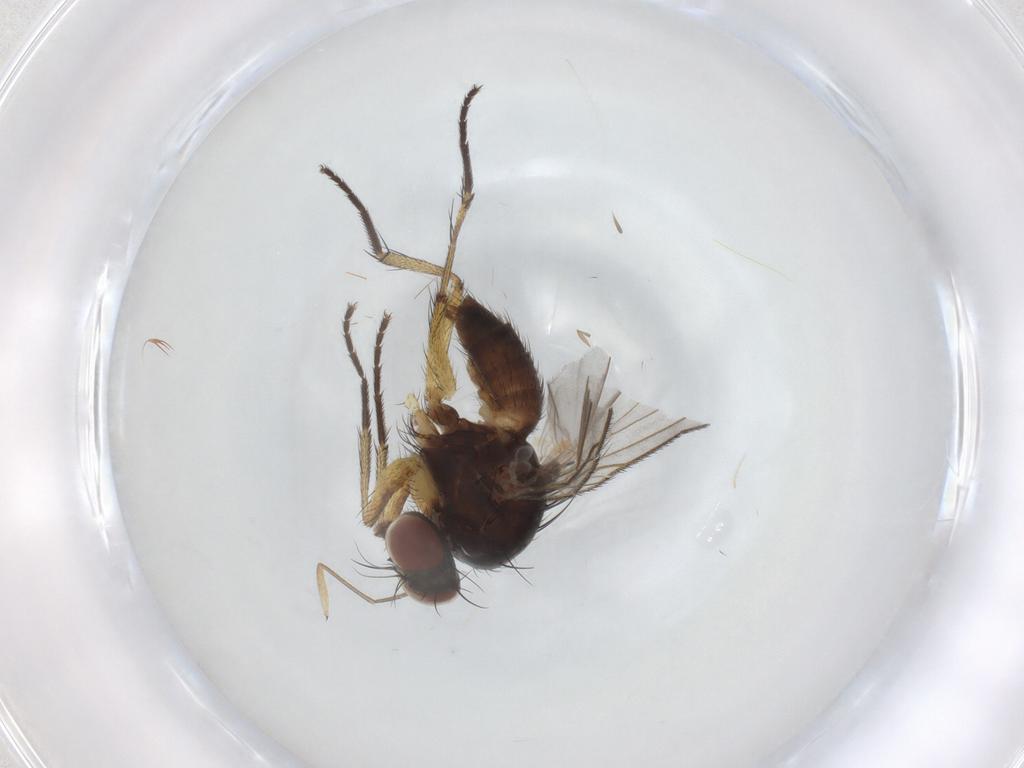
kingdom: Animalia
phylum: Arthropoda
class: Insecta
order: Diptera
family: Muscidae
